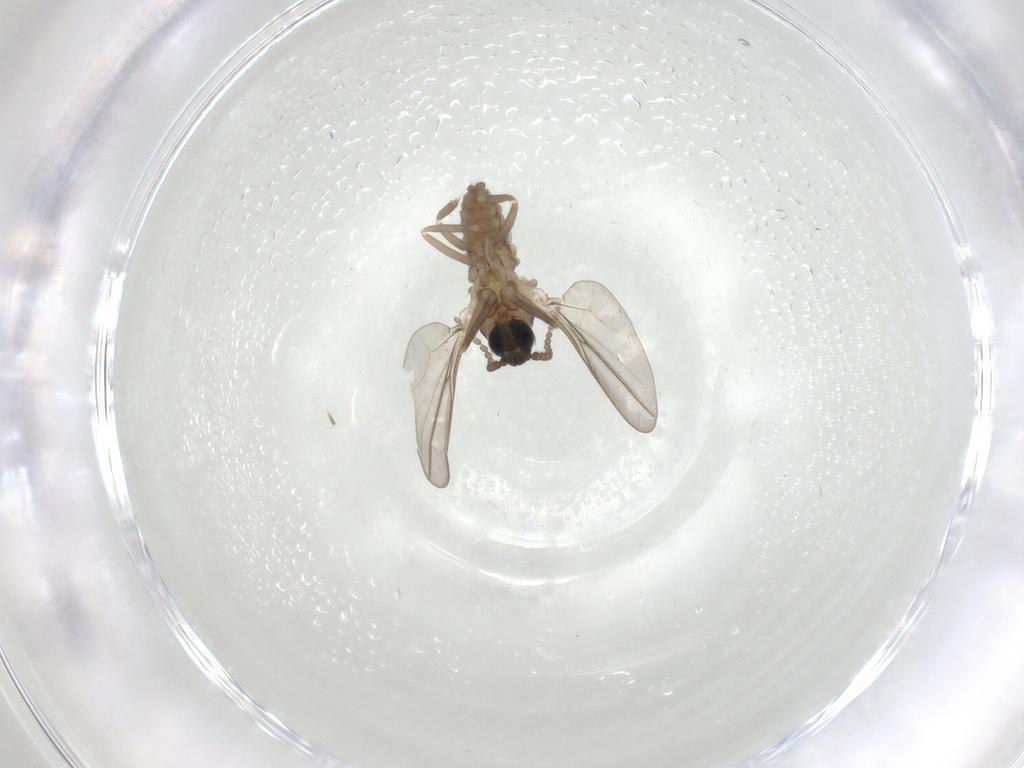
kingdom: Animalia
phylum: Arthropoda
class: Insecta
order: Diptera
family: Cecidomyiidae
